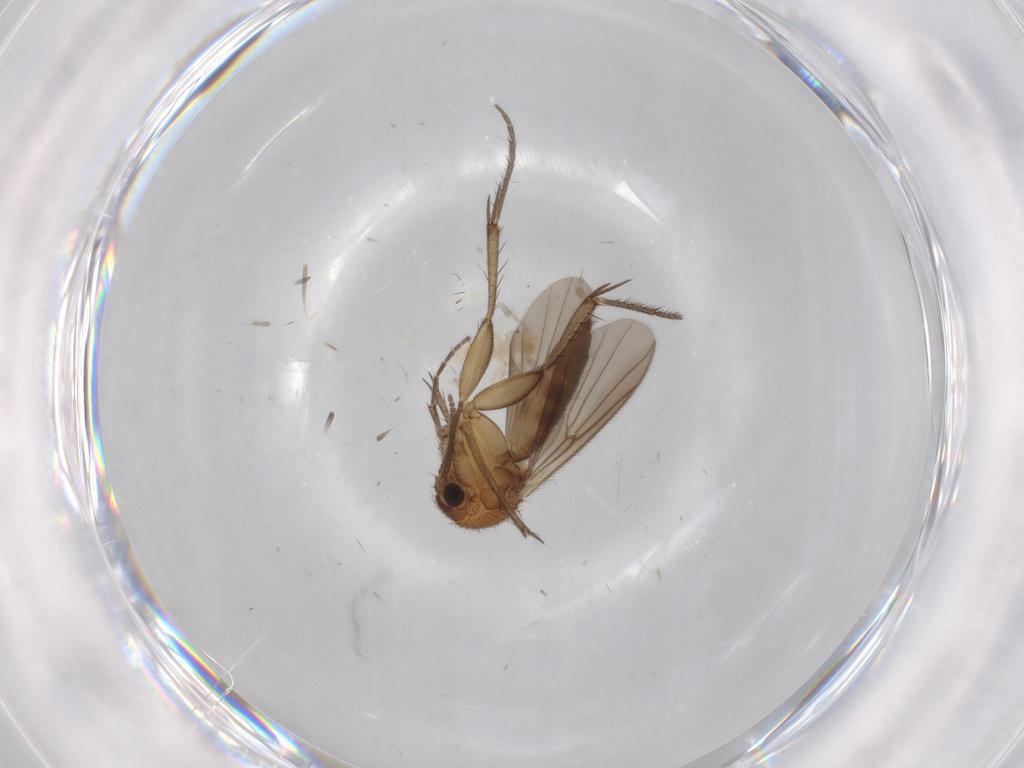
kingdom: Animalia
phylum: Arthropoda
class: Insecta
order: Diptera
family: Mycetophilidae
